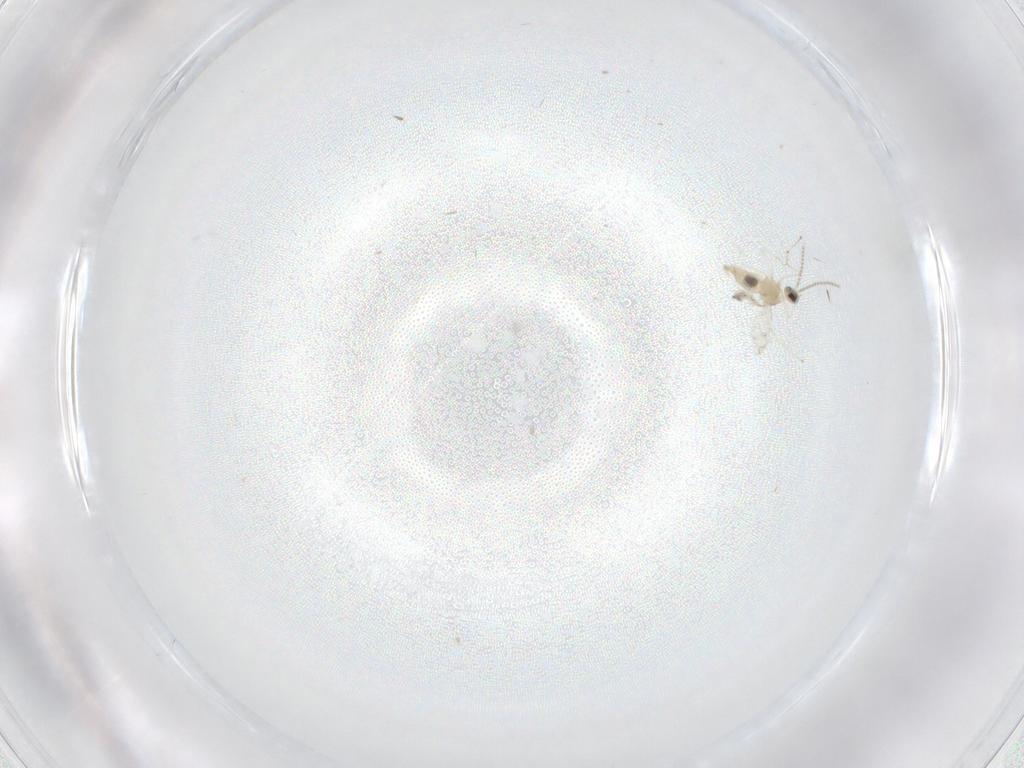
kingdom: Animalia
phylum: Arthropoda
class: Insecta
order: Diptera
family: Cecidomyiidae
